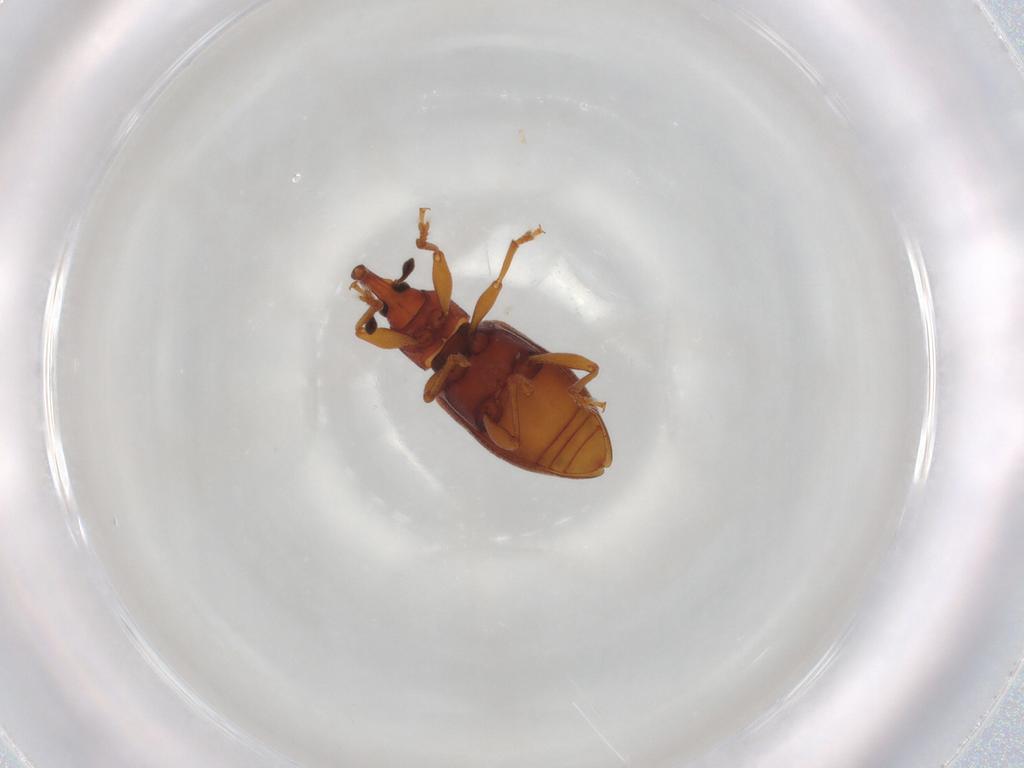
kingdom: Animalia
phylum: Arthropoda
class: Insecta
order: Coleoptera
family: Curculionidae
